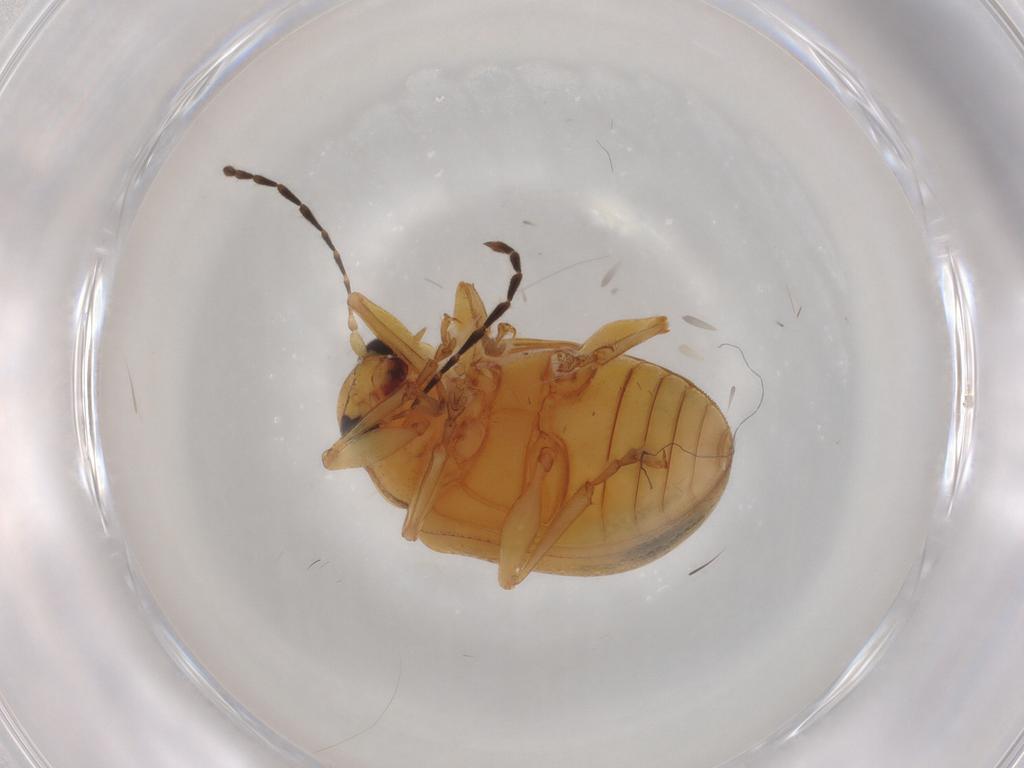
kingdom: Animalia
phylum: Arthropoda
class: Insecta
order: Coleoptera
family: Chrysomelidae
